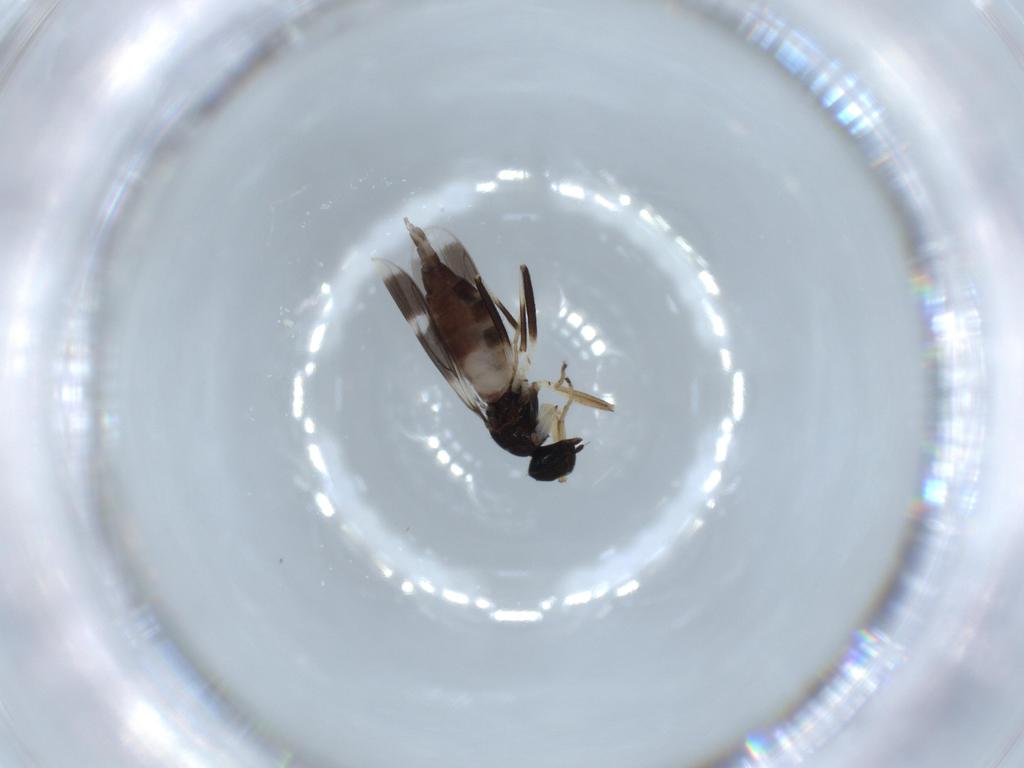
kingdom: Animalia
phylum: Arthropoda
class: Insecta
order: Diptera
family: Hybotidae
